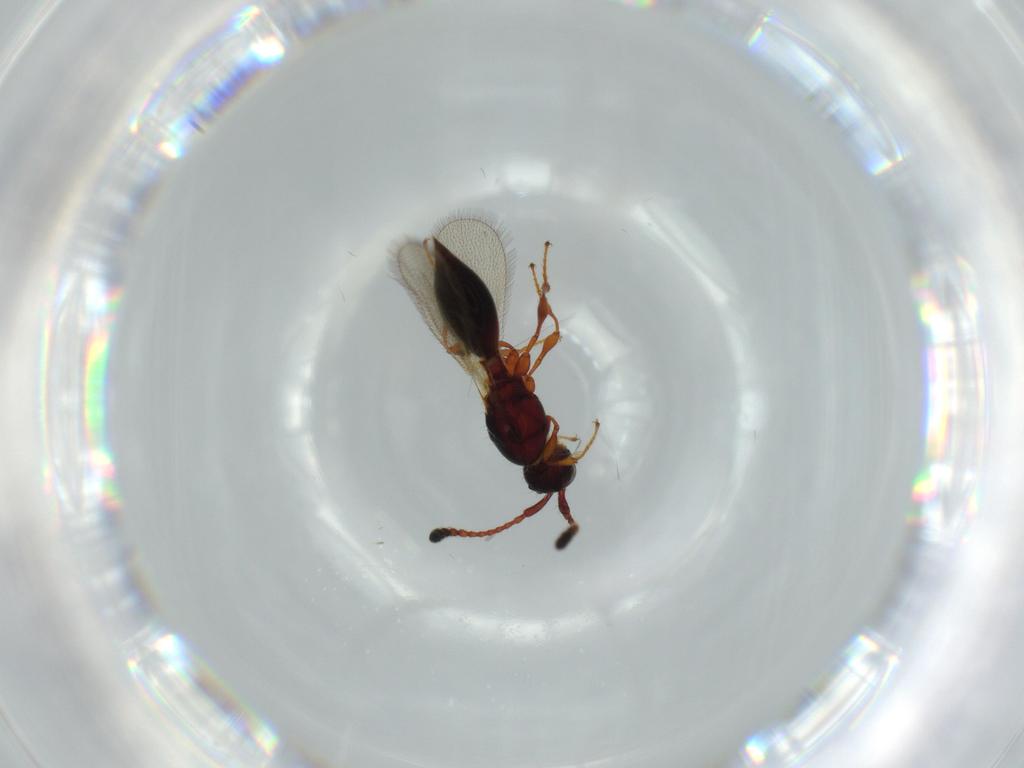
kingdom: Animalia
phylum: Arthropoda
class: Insecta
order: Hymenoptera
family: Diapriidae
